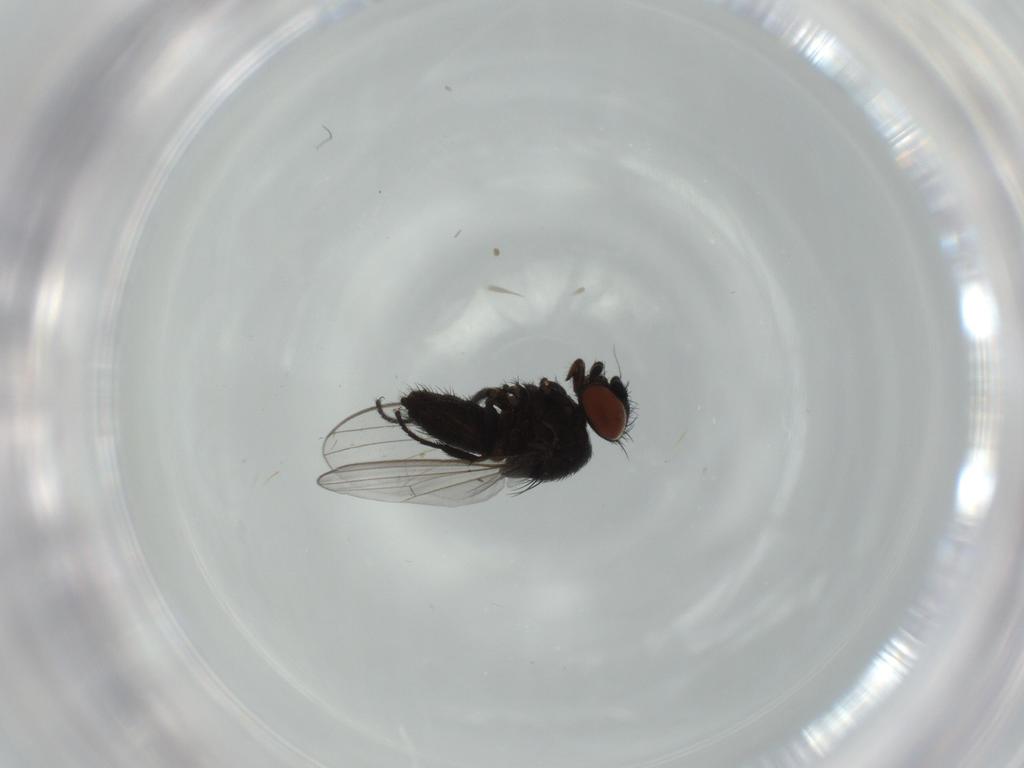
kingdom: Animalia
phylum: Arthropoda
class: Insecta
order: Diptera
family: Milichiidae
